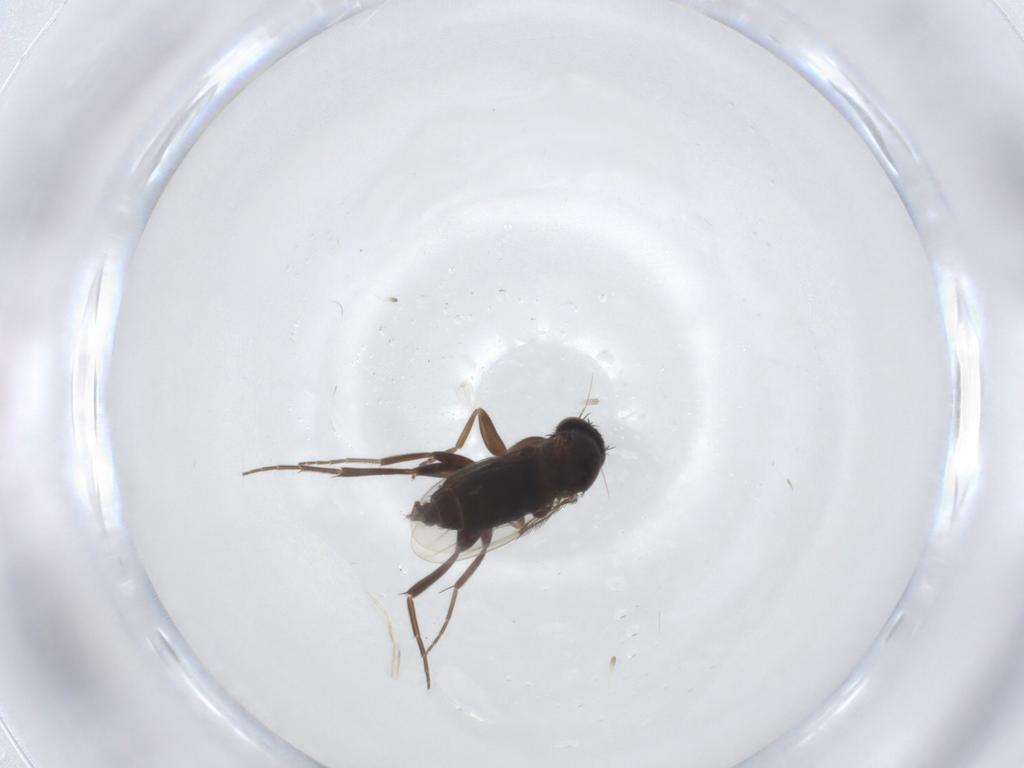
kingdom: Animalia
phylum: Arthropoda
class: Insecta
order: Diptera
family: Phoridae
